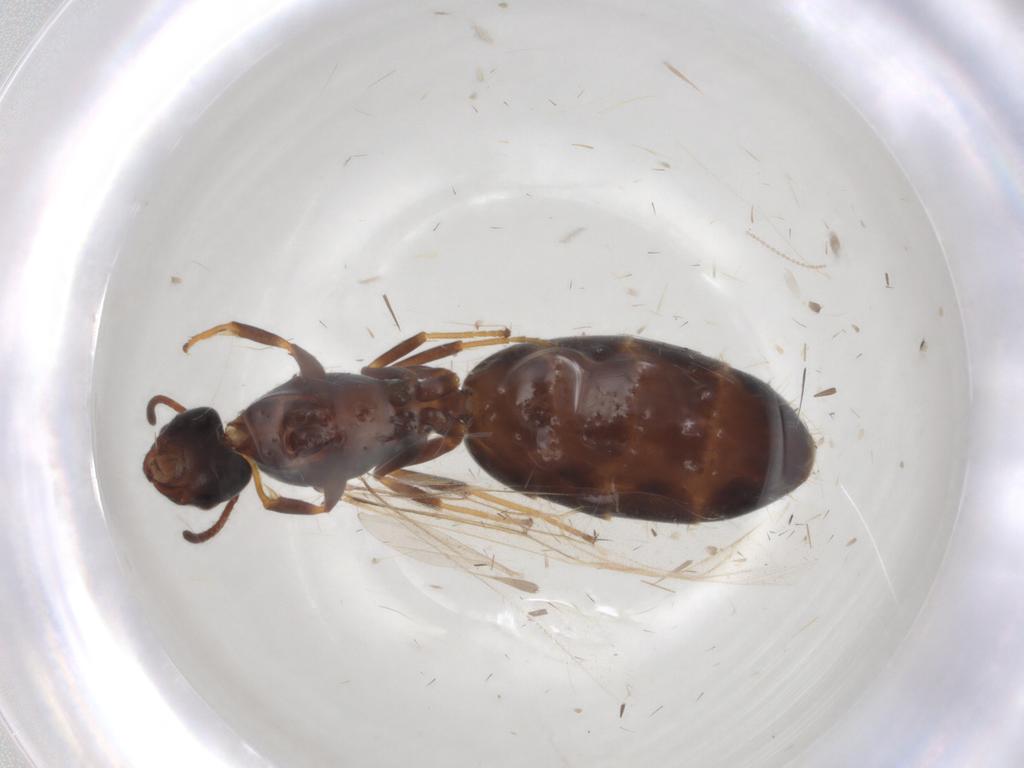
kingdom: Animalia
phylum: Arthropoda
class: Insecta
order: Hymenoptera
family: Scelionidae
